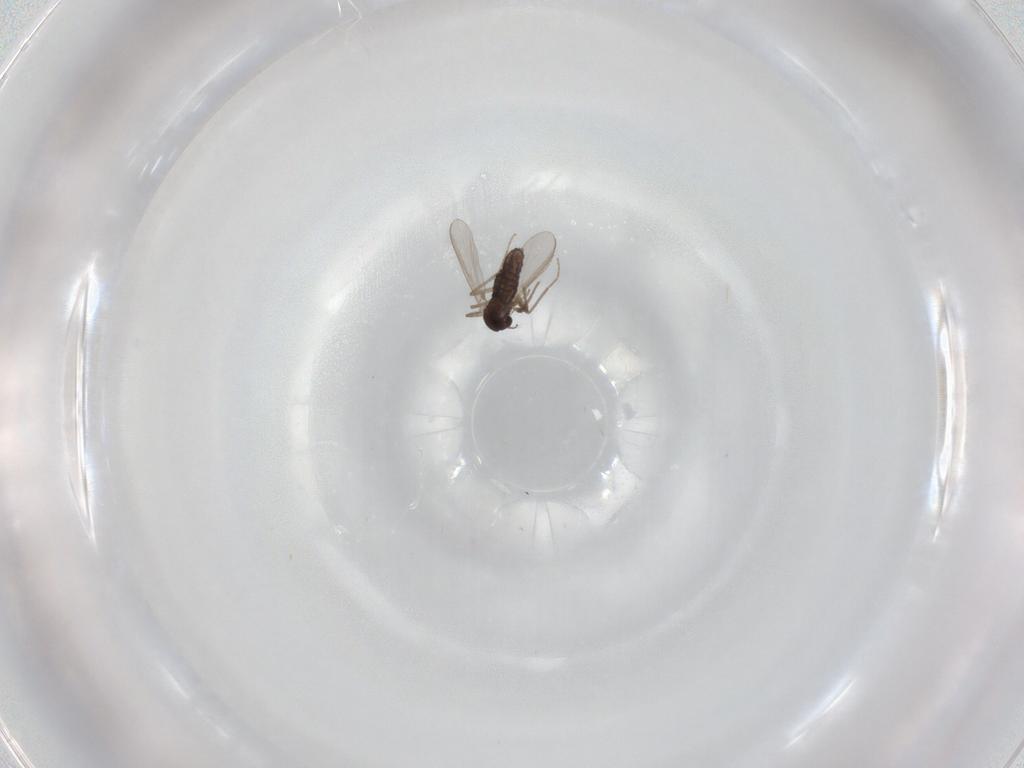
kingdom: Animalia
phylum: Arthropoda
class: Insecta
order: Diptera
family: Chironomidae
